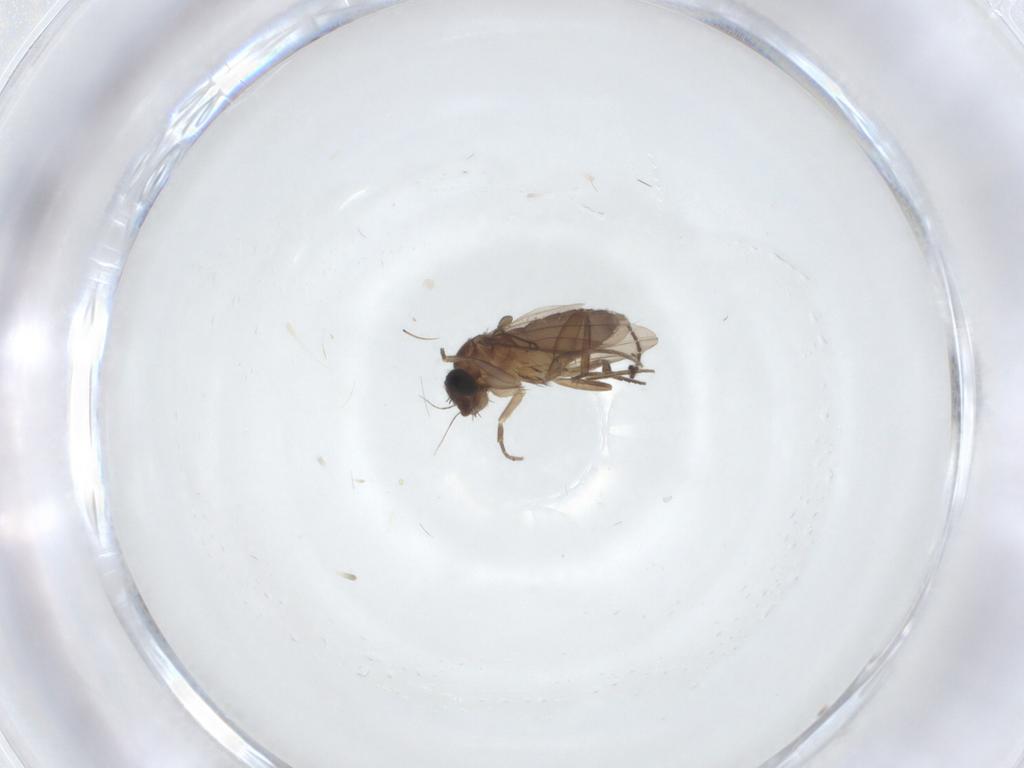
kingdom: Animalia
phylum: Arthropoda
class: Insecta
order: Diptera
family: Phoridae
